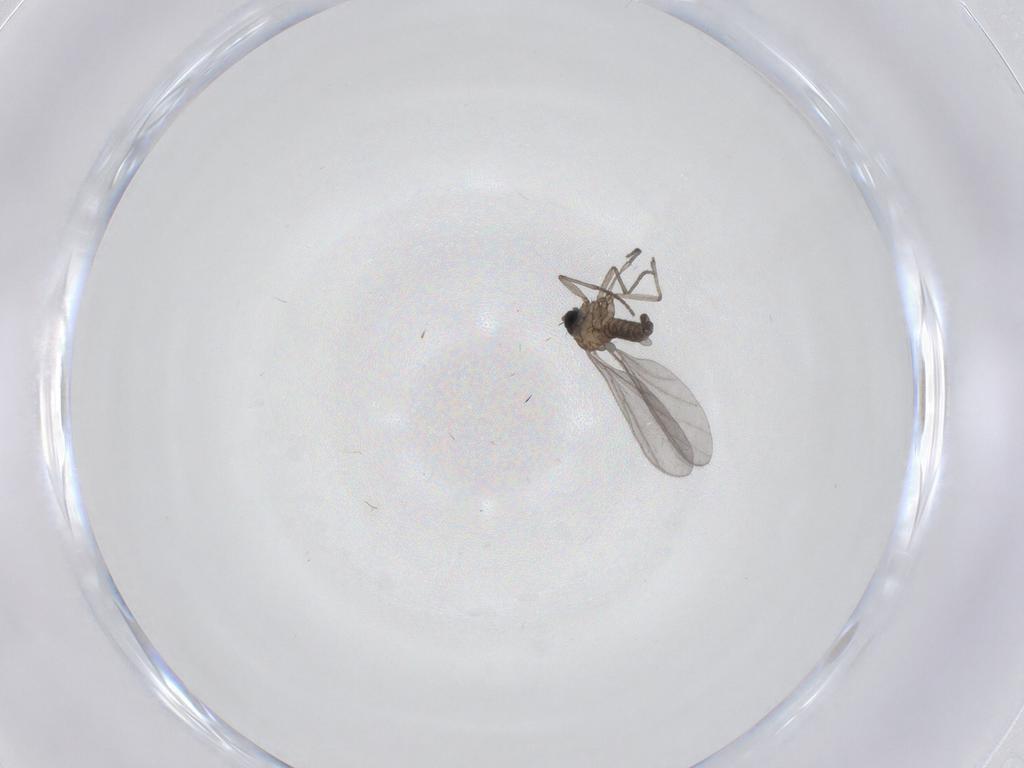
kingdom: Animalia
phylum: Arthropoda
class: Insecta
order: Diptera
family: Sciaridae
